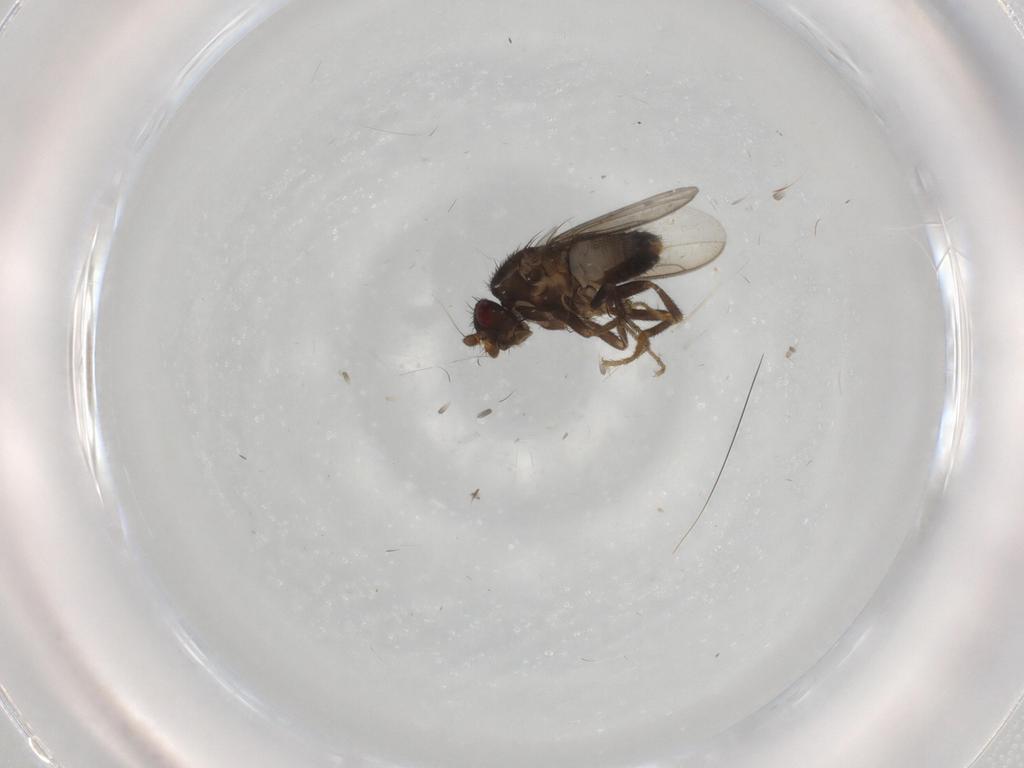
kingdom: Animalia
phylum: Arthropoda
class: Insecta
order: Diptera
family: Sphaeroceridae
